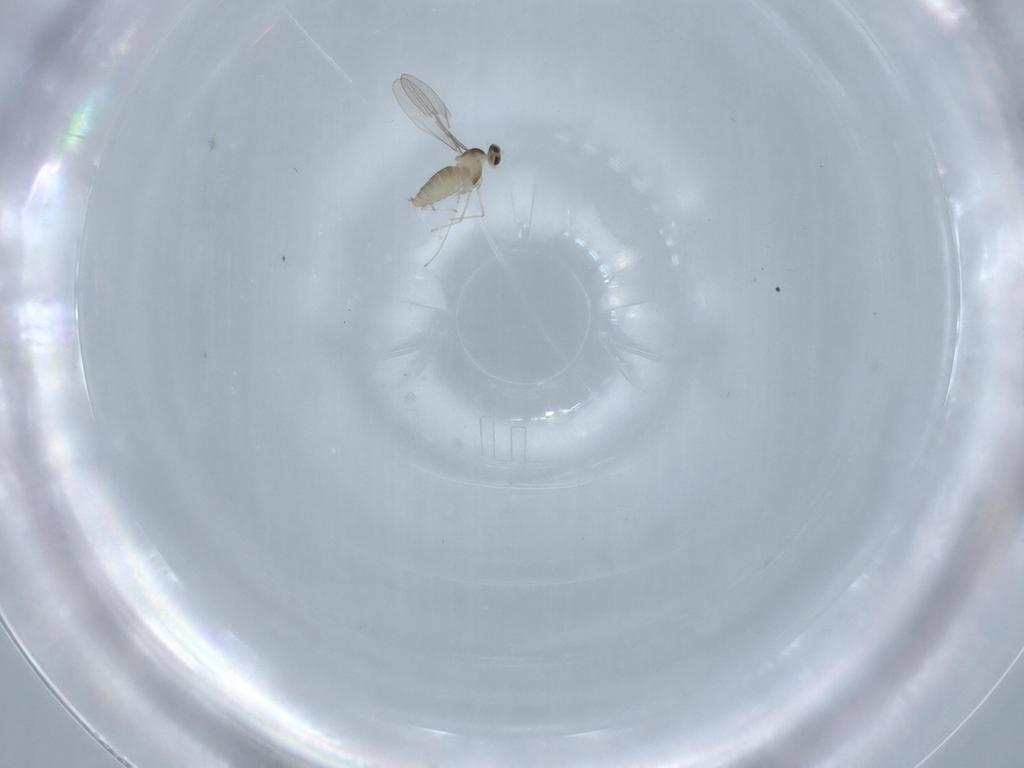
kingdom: Animalia
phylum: Arthropoda
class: Insecta
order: Diptera
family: Cecidomyiidae
